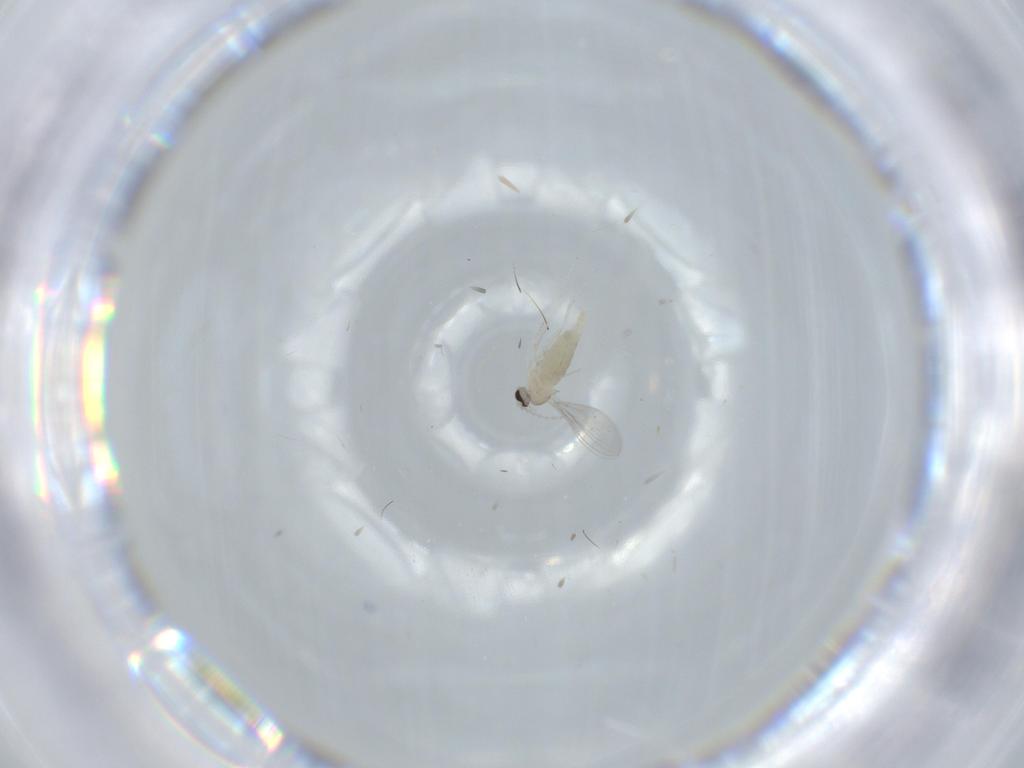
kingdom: Animalia
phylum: Arthropoda
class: Insecta
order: Diptera
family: Cecidomyiidae
